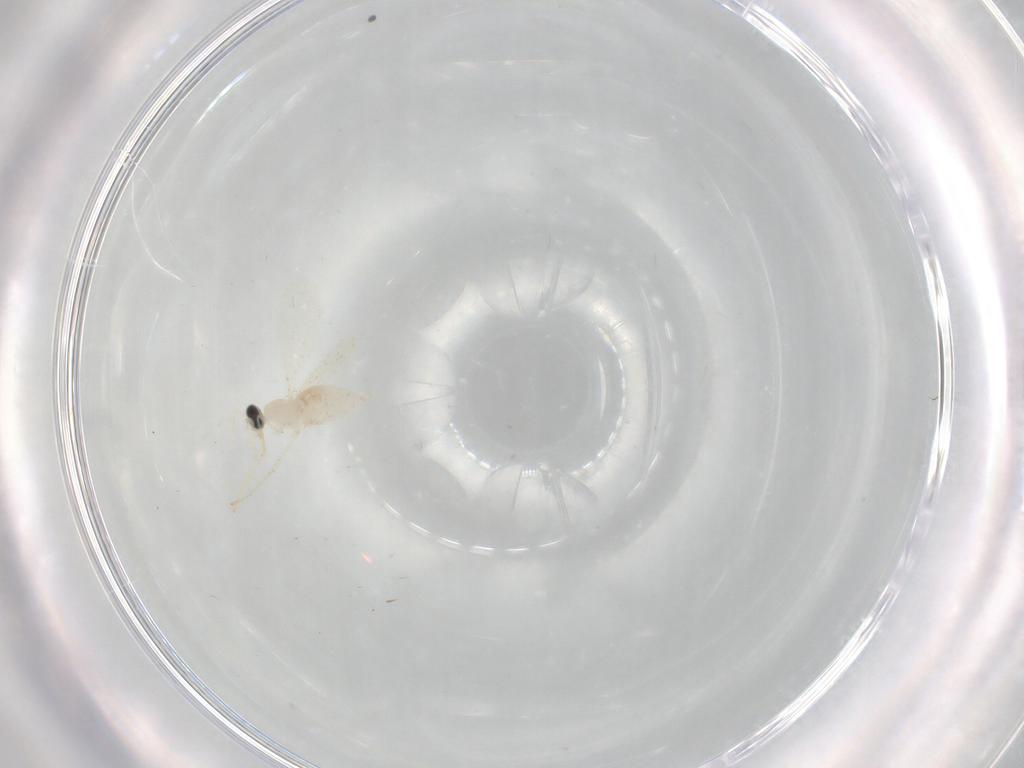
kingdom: Animalia
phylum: Arthropoda
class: Insecta
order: Diptera
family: Cecidomyiidae
